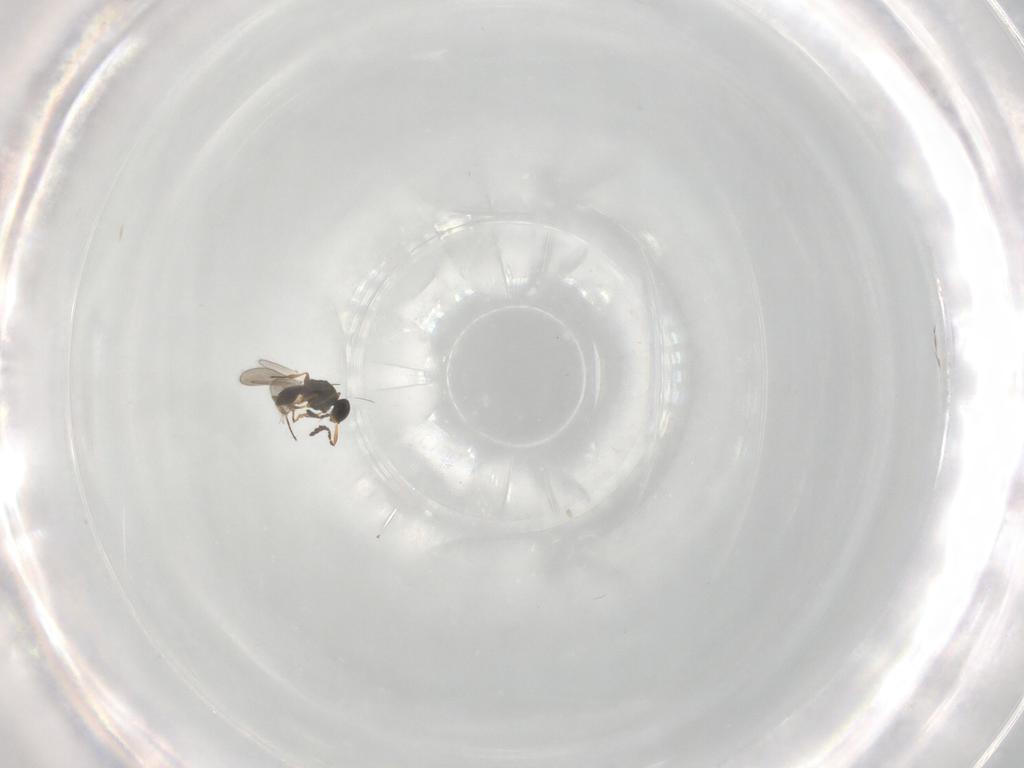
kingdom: Animalia
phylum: Arthropoda
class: Insecta
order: Hymenoptera
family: Platygastridae
